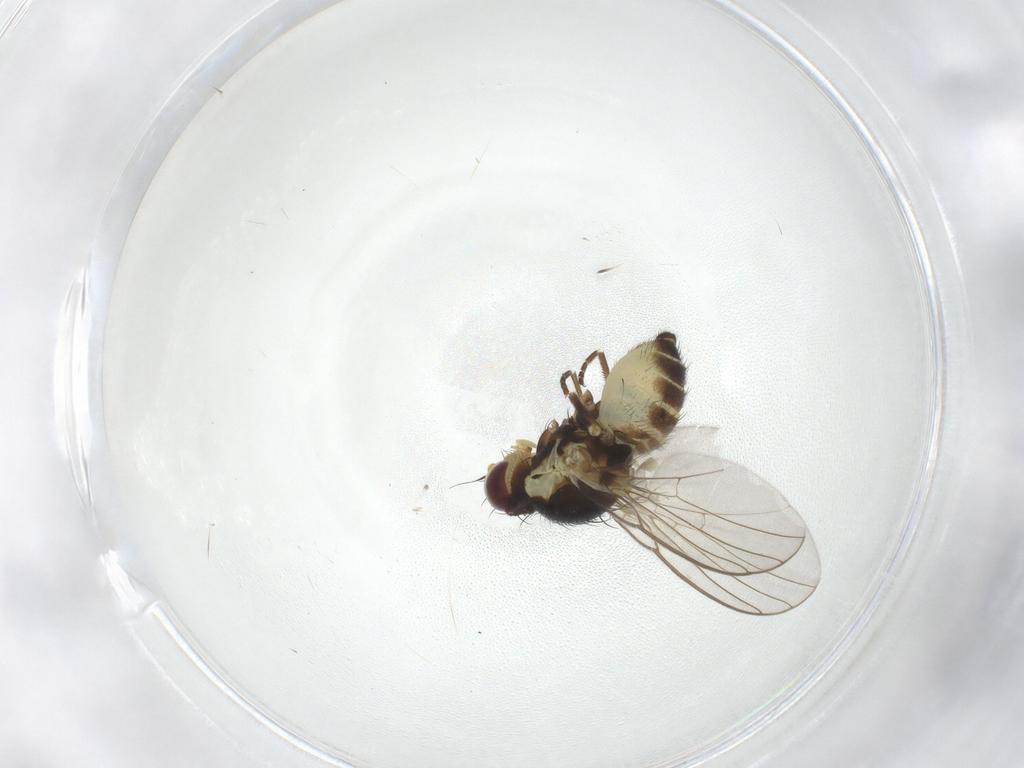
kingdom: Animalia
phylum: Arthropoda
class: Insecta
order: Diptera
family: Agromyzidae
